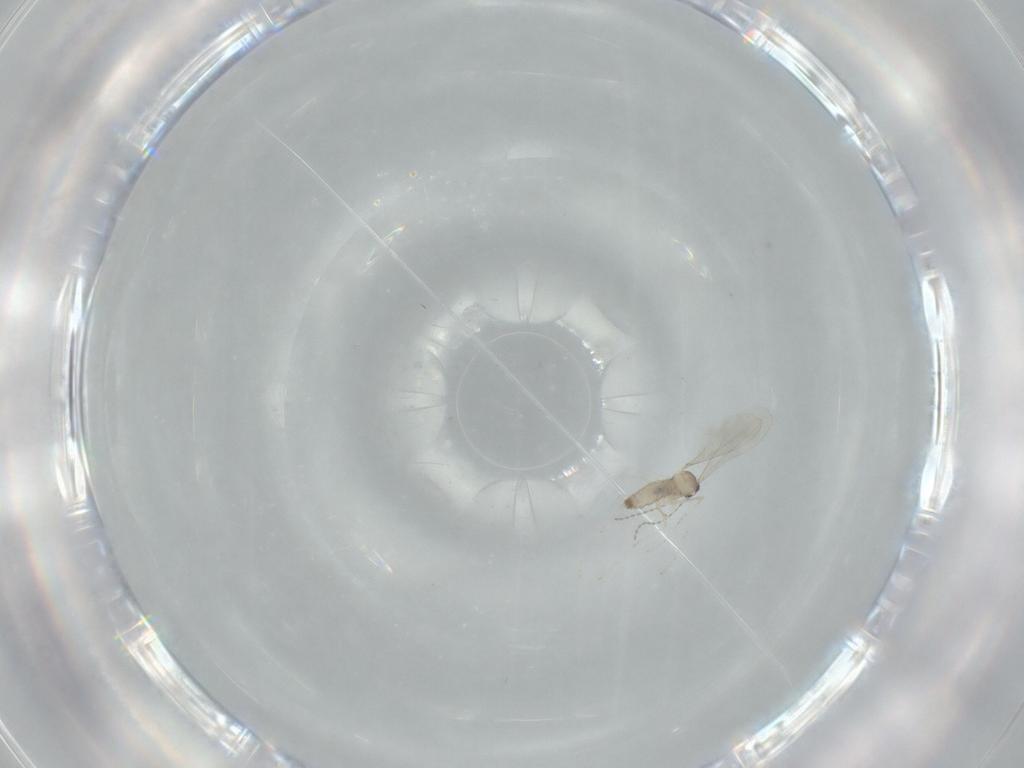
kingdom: Animalia
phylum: Arthropoda
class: Insecta
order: Diptera
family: Cecidomyiidae
